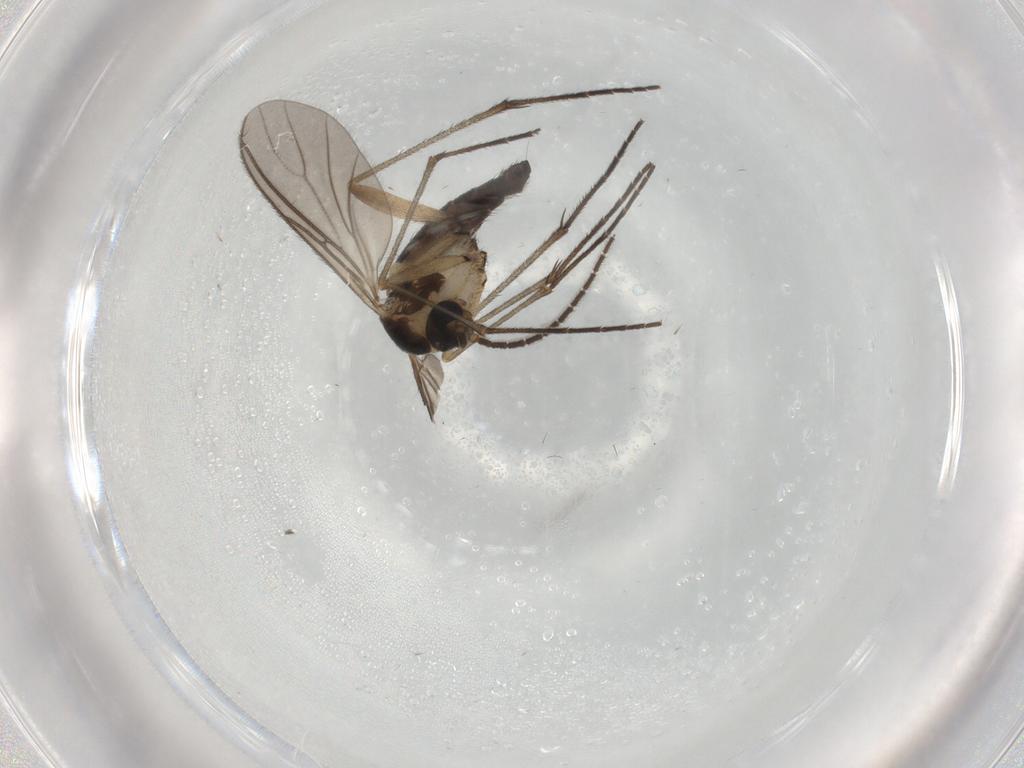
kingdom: Animalia
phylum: Arthropoda
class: Insecta
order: Diptera
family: Sciaridae
